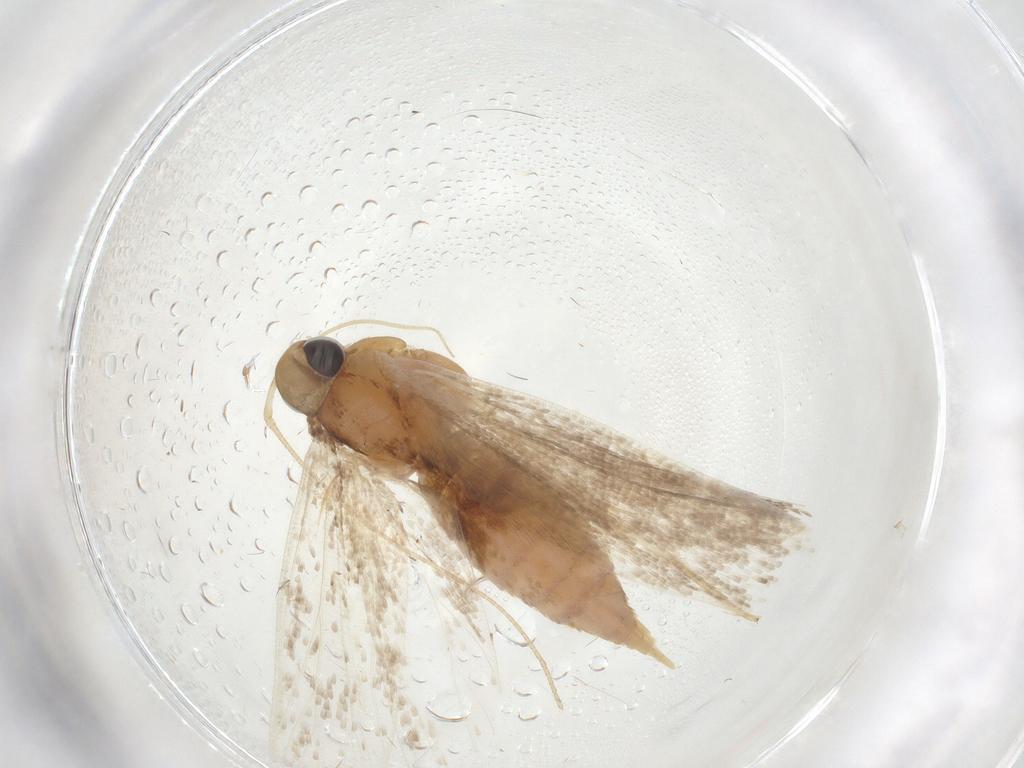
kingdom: Animalia
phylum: Arthropoda
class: Insecta
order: Lepidoptera
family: Gelechiidae
